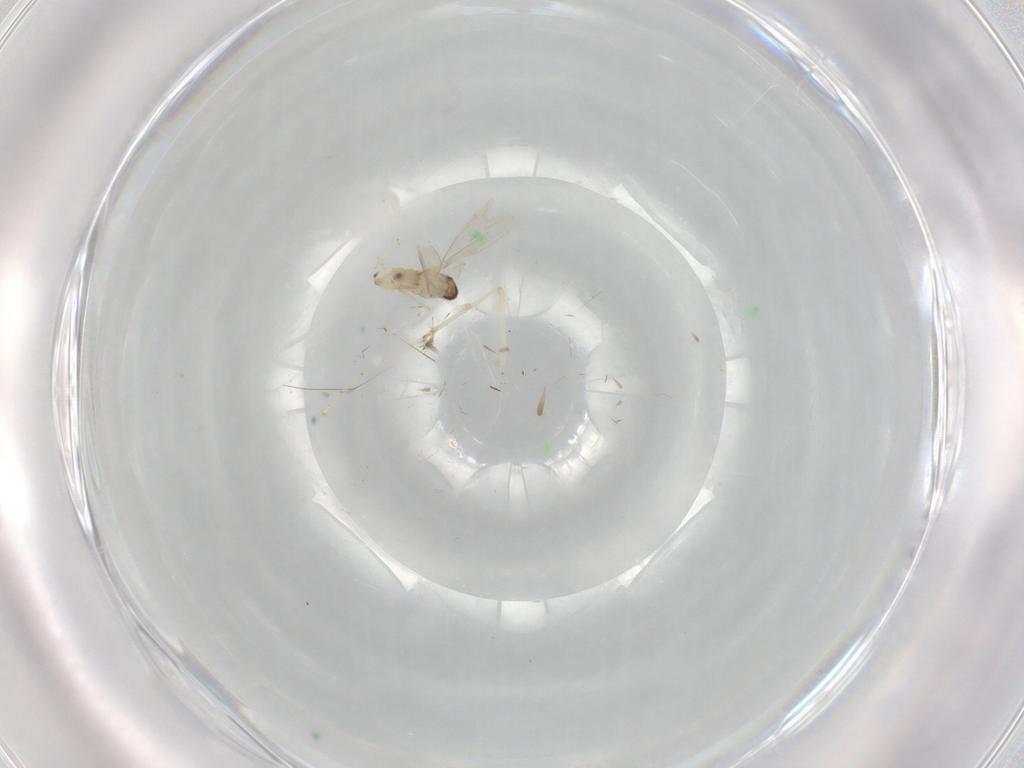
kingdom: Animalia
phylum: Arthropoda
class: Insecta
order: Diptera
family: Cecidomyiidae
